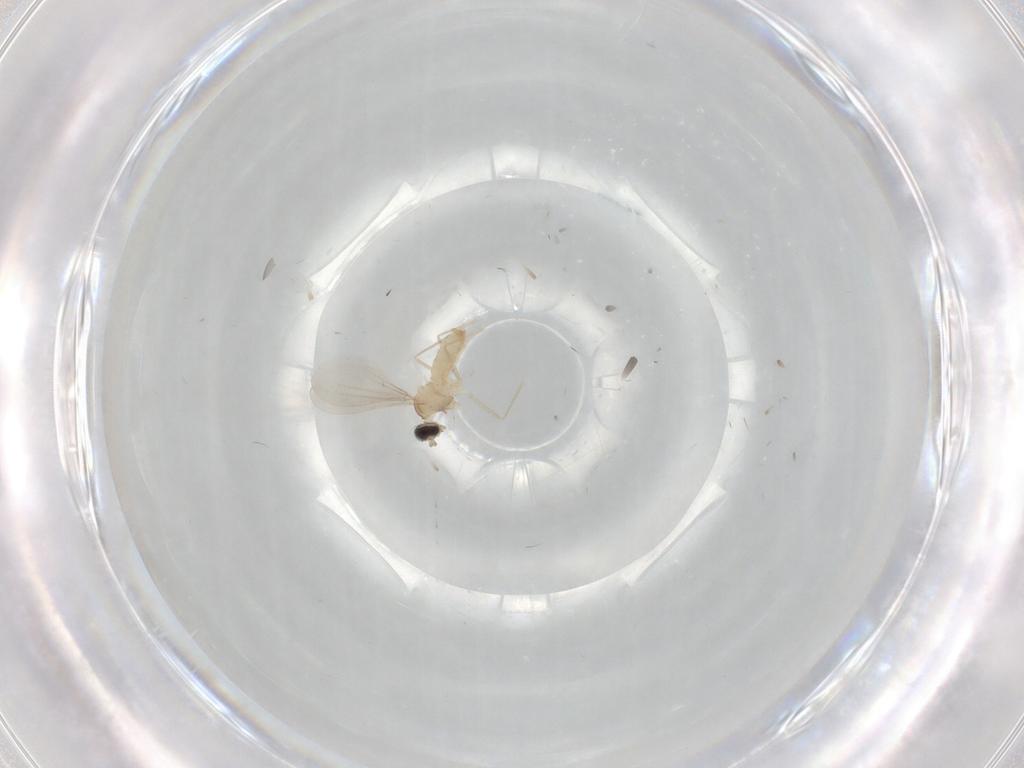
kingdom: Animalia
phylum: Arthropoda
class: Insecta
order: Diptera
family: Cecidomyiidae
